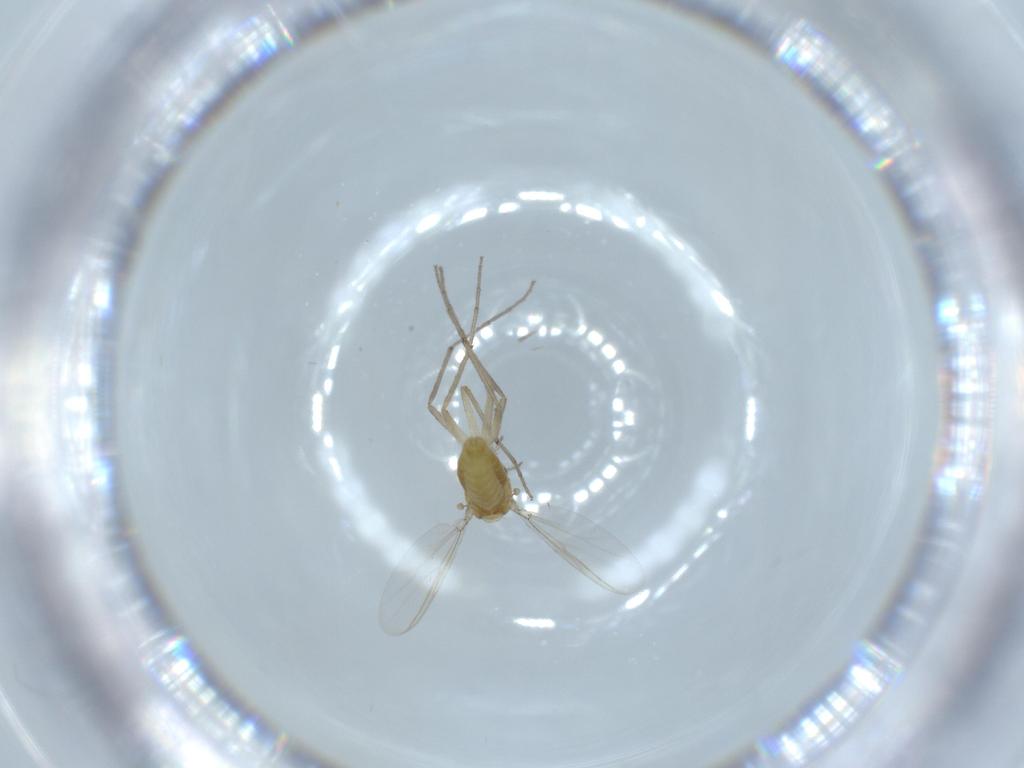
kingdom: Animalia
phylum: Arthropoda
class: Insecta
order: Diptera
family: Chironomidae
